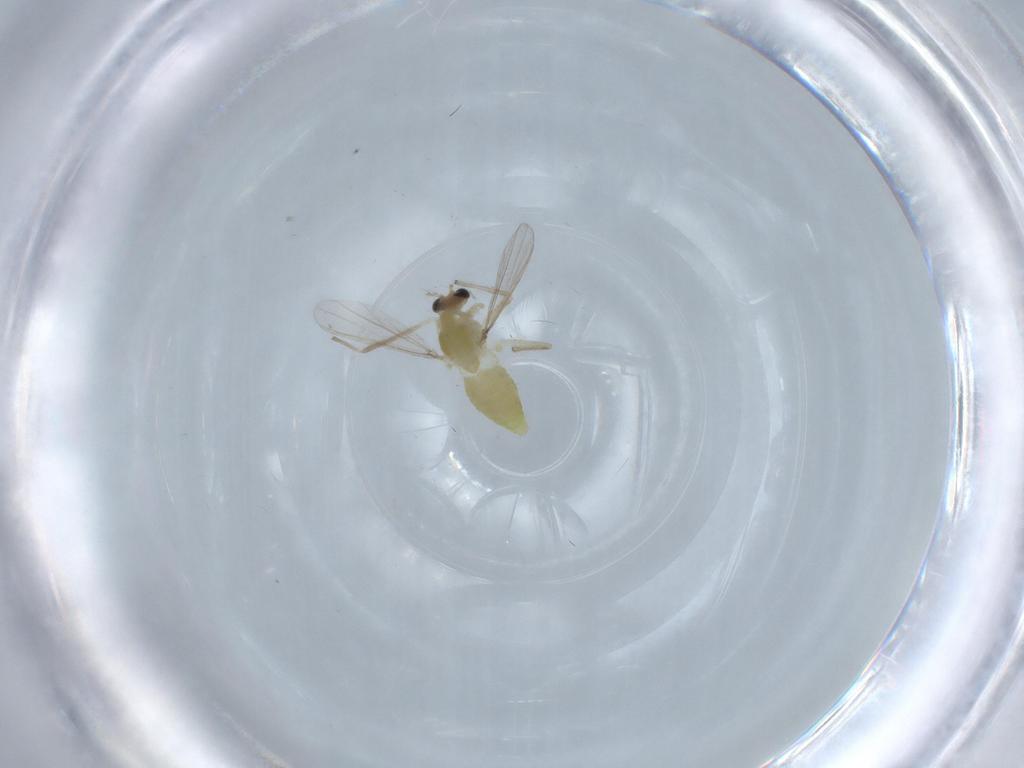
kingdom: Animalia
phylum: Arthropoda
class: Insecta
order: Diptera
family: Chironomidae
